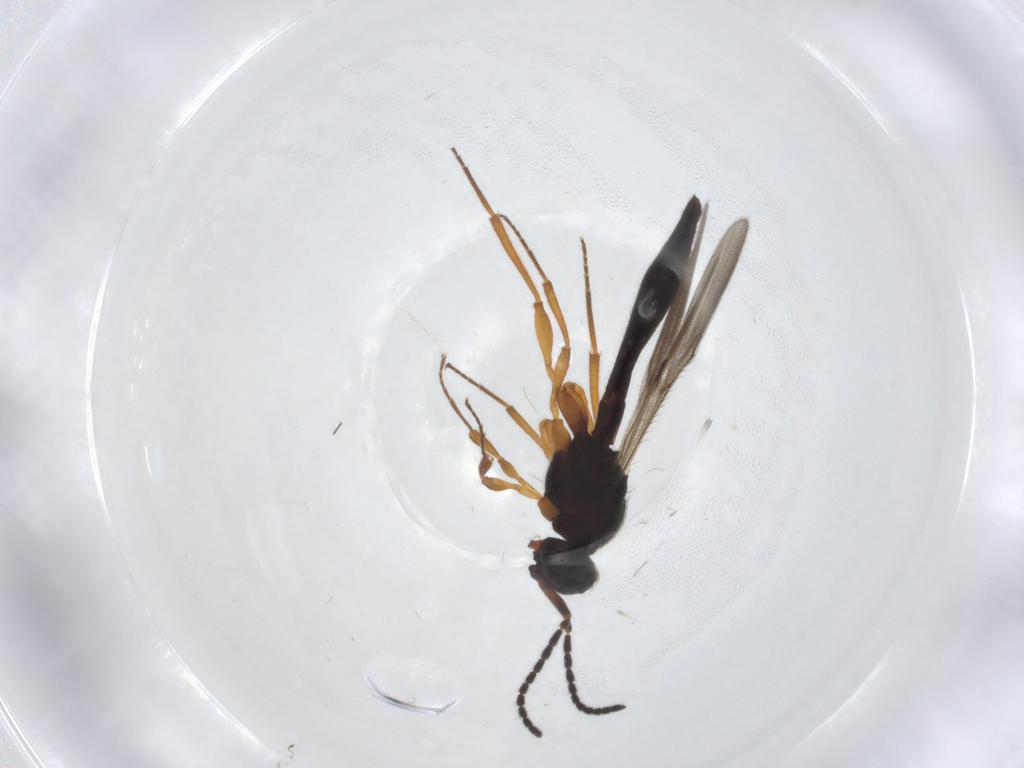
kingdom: Animalia
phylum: Arthropoda
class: Insecta
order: Hymenoptera
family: Scelionidae
